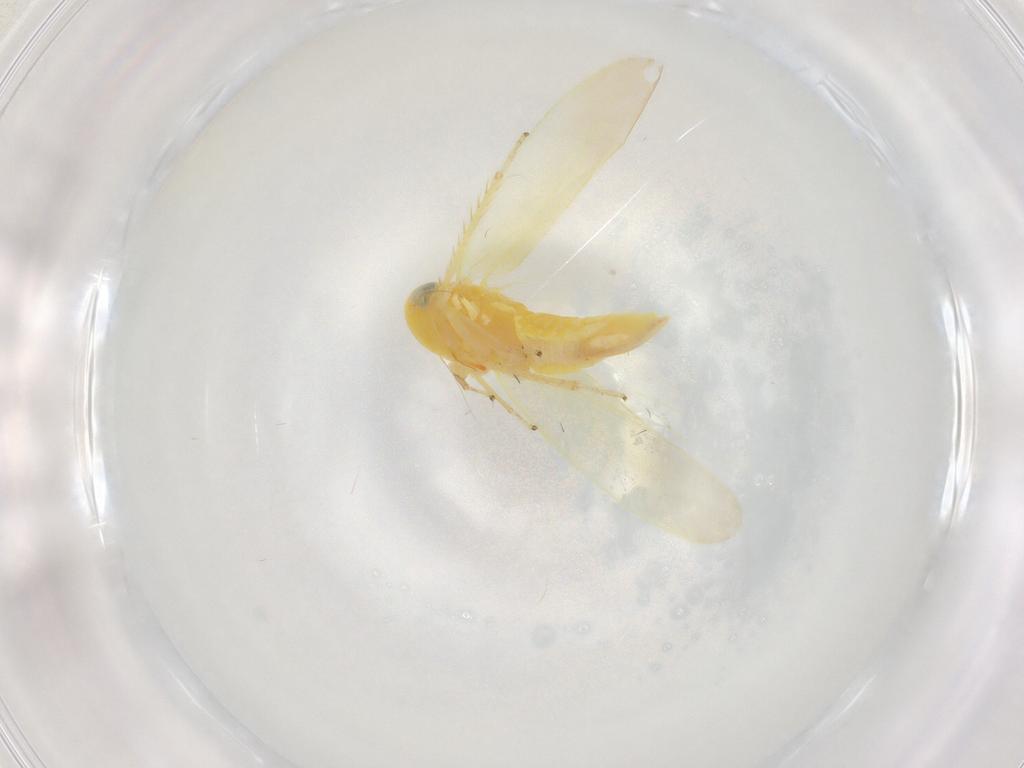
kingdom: Animalia
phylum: Arthropoda
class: Insecta
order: Hemiptera
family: Cicadellidae
